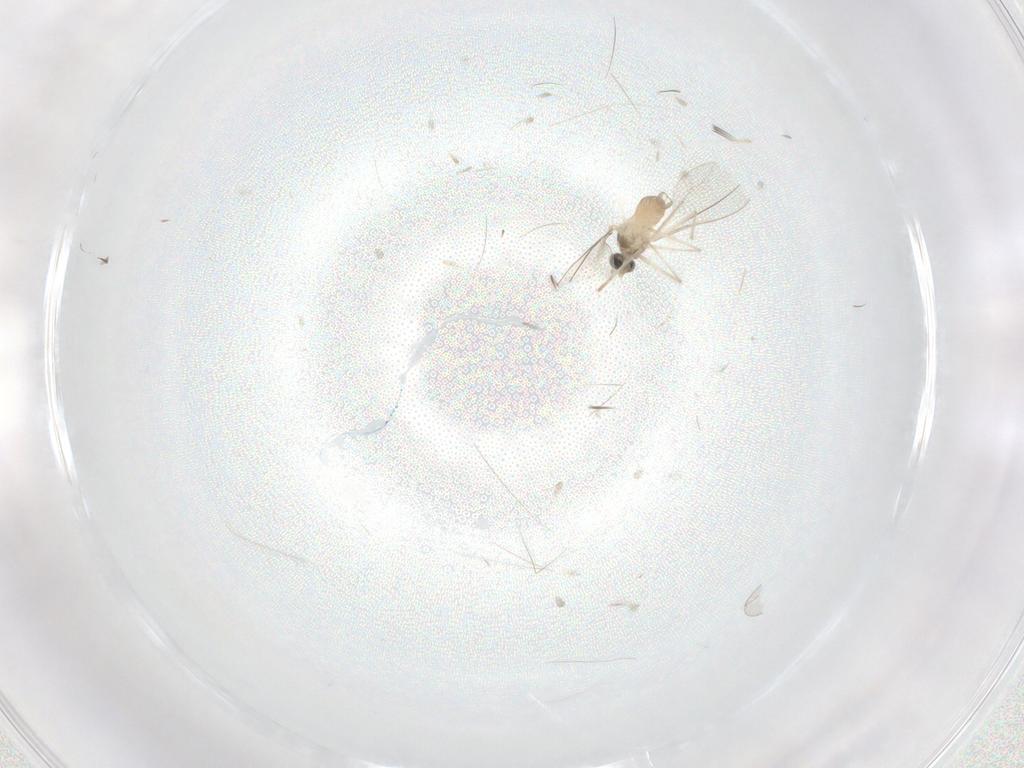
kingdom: Animalia
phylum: Arthropoda
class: Insecta
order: Diptera
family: Cecidomyiidae
